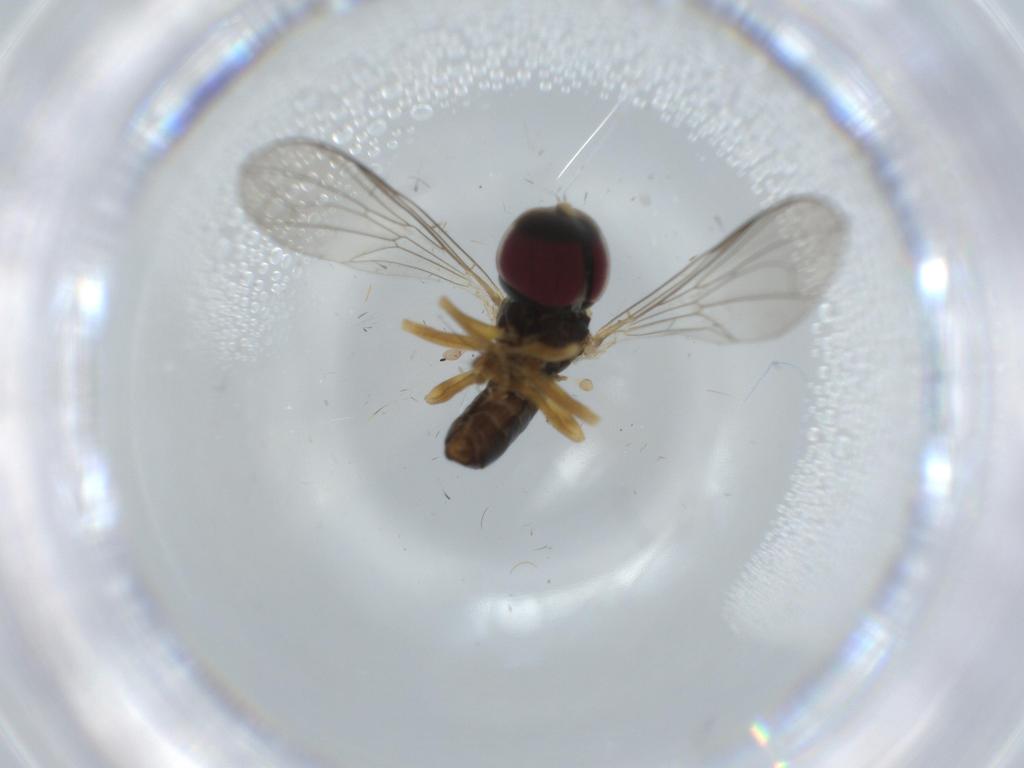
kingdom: Animalia
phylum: Arthropoda
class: Insecta
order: Diptera
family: Pipunculidae
